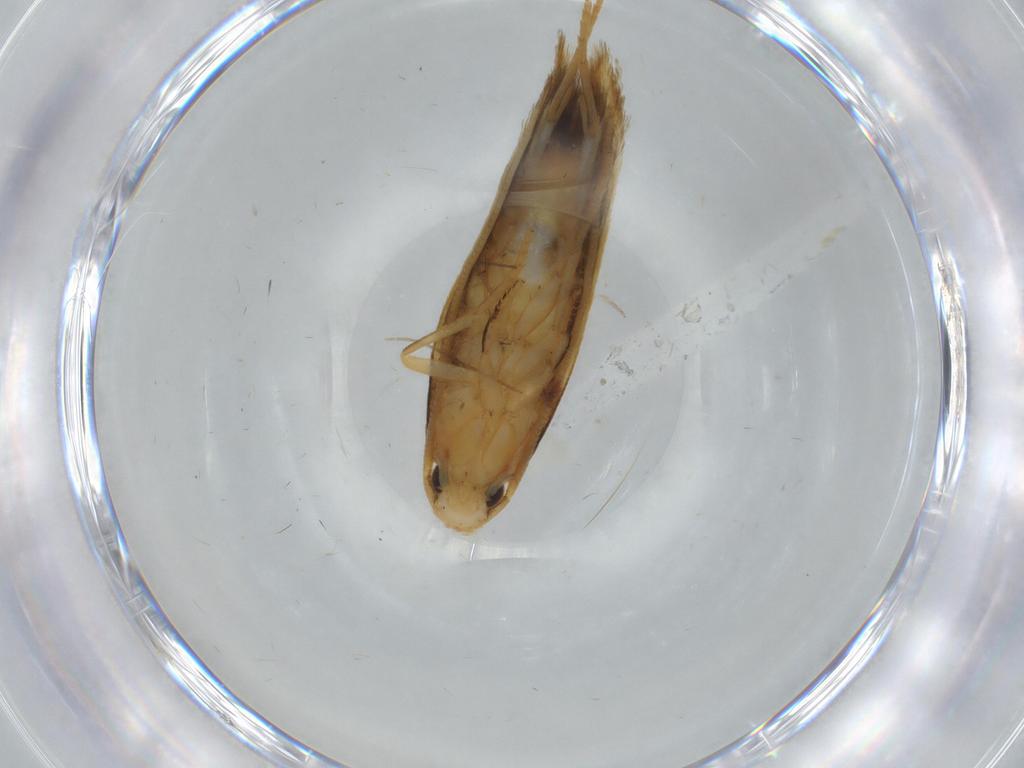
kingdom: Animalia
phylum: Arthropoda
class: Insecta
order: Lepidoptera
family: Tineidae
